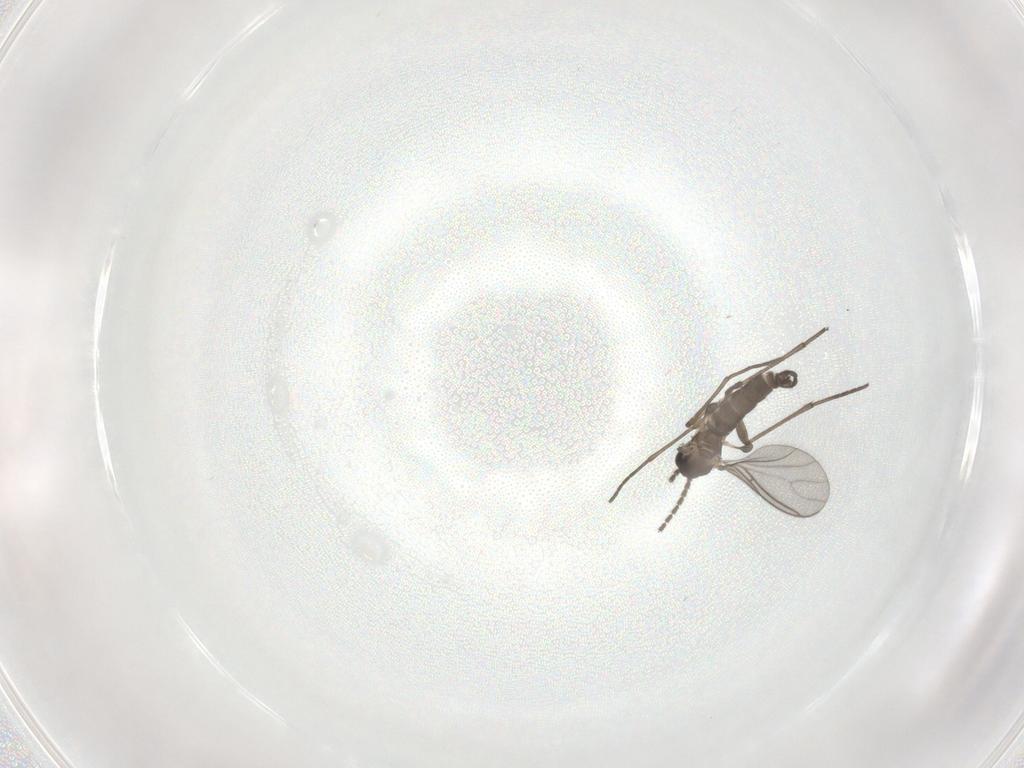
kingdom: Animalia
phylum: Arthropoda
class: Insecta
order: Diptera
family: Sciaridae
